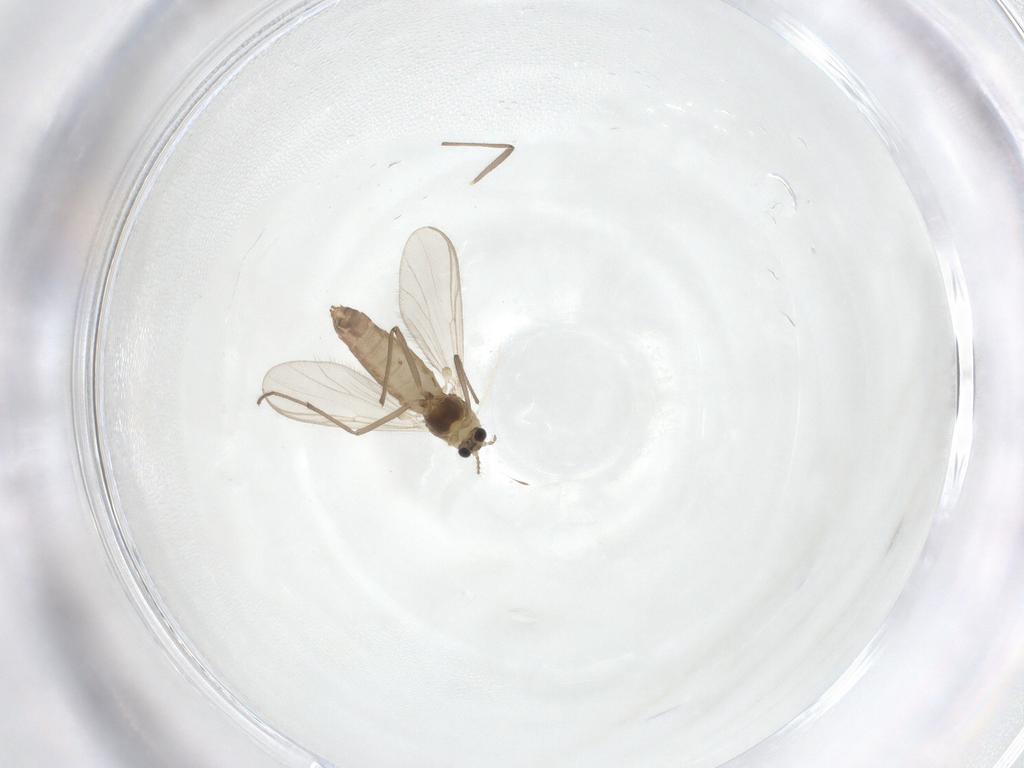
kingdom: Animalia
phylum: Arthropoda
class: Insecta
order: Diptera
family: Chironomidae
